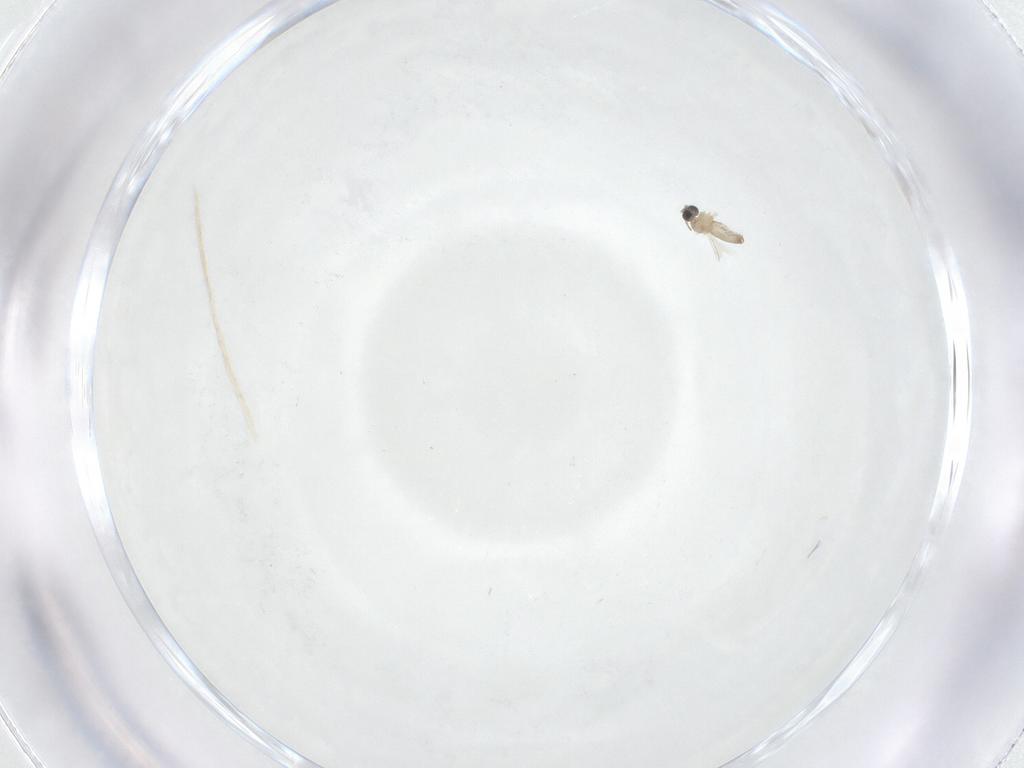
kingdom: Animalia
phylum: Arthropoda
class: Insecta
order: Diptera
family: Cecidomyiidae
